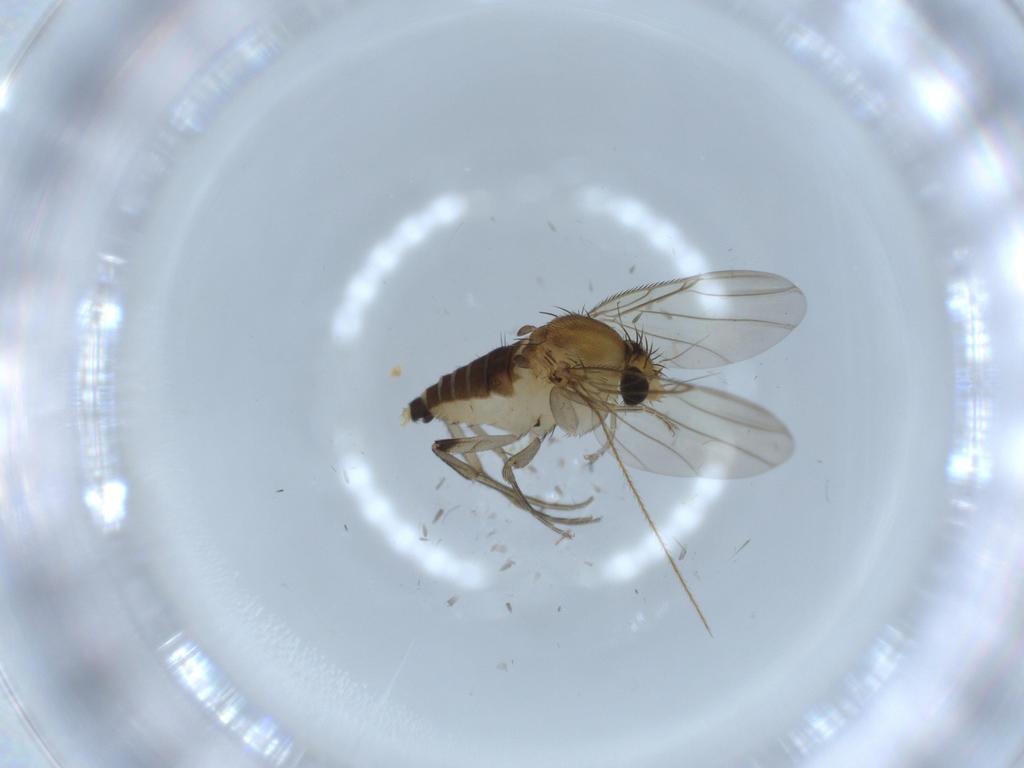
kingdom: Animalia
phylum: Arthropoda
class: Insecta
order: Diptera
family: Phoridae
